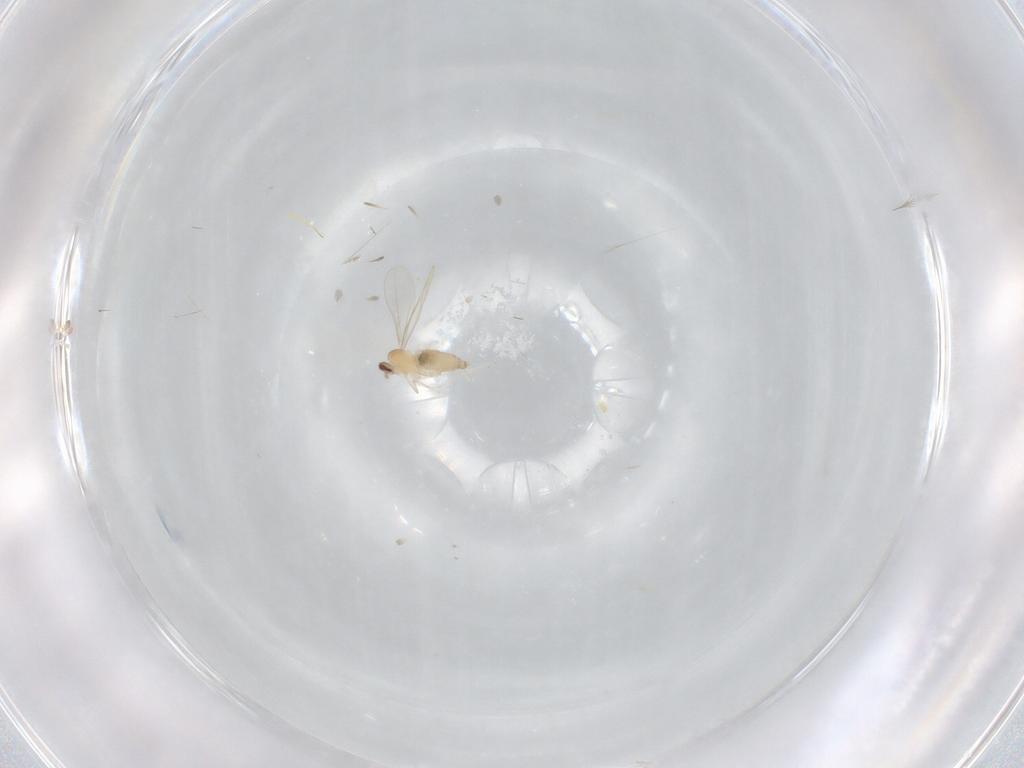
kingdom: Animalia
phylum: Arthropoda
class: Insecta
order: Diptera
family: Cecidomyiidae
